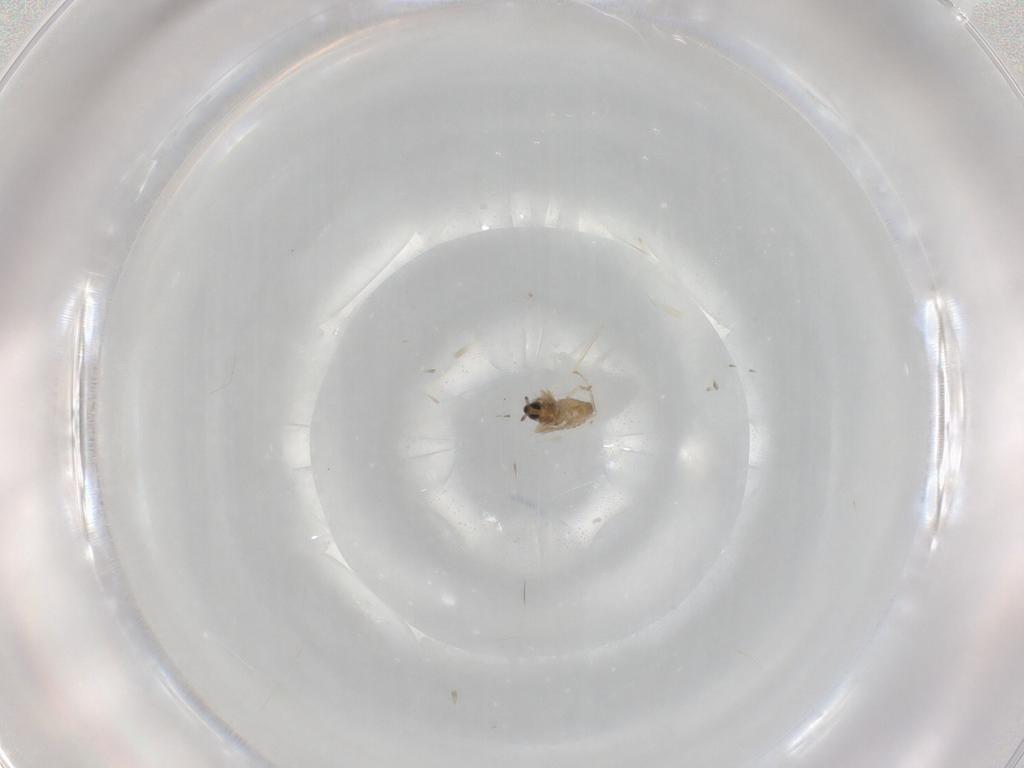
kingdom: Animalia
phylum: Arthropoda
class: Insecta
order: Diptera
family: Cecidomyiidae
